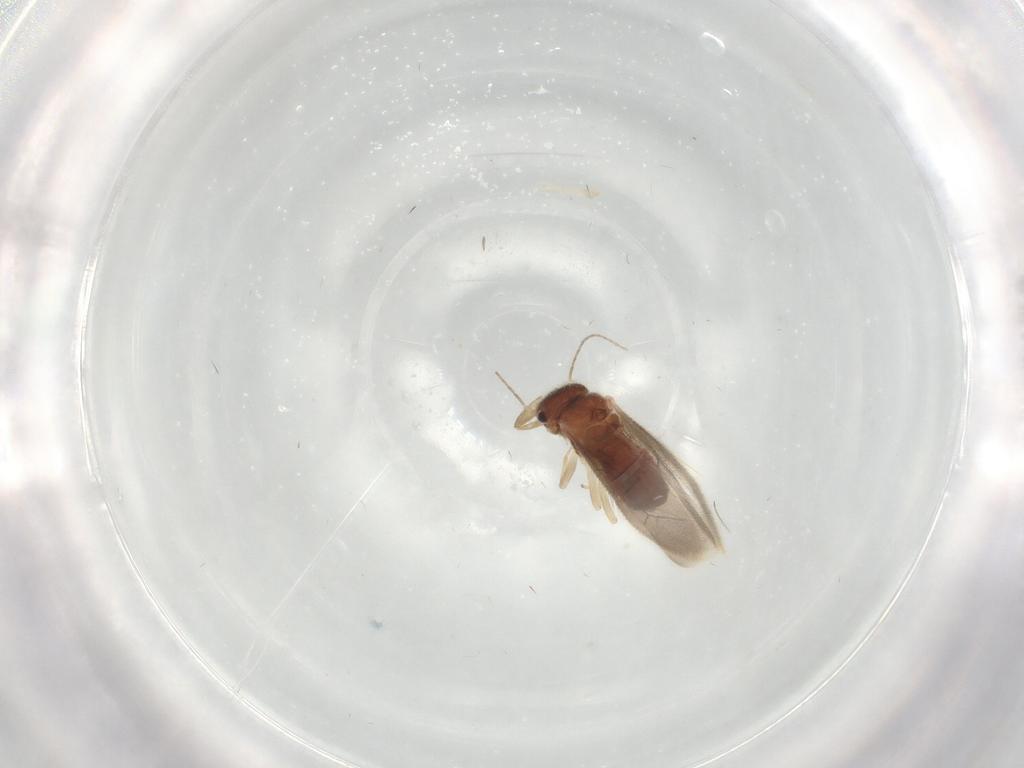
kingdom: Animalia
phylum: Arthropoda
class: Insecta
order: Psocodea
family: Archipsocidae
